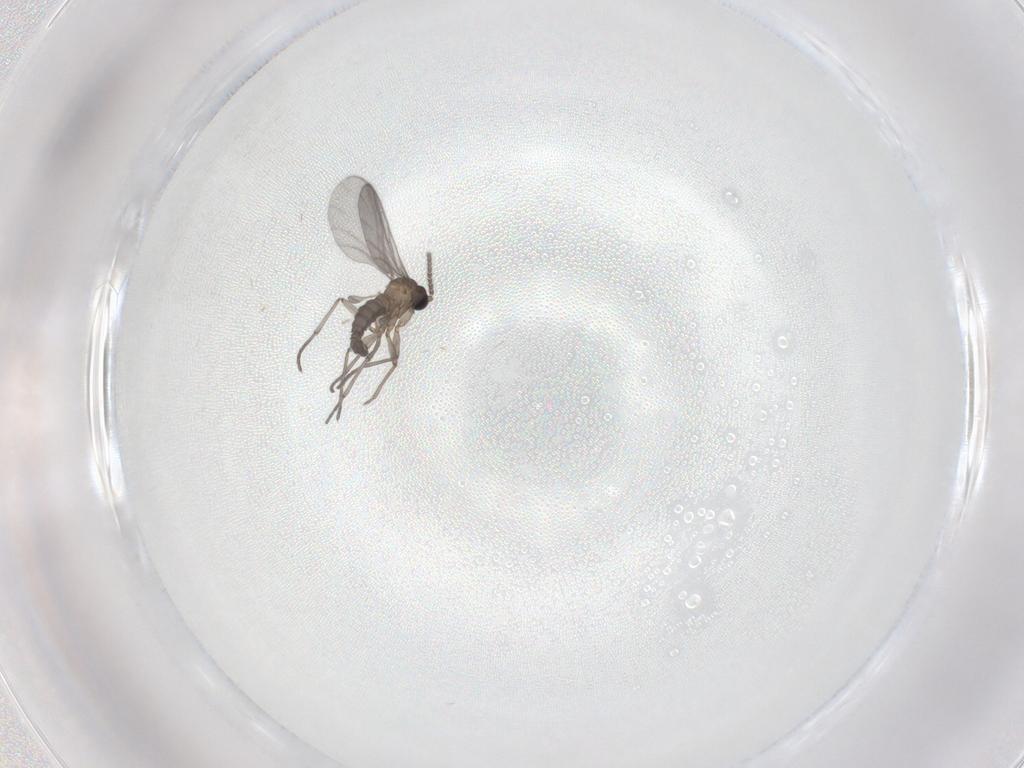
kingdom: Animalia
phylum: Arthropoda
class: Insecta
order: Diptera
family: Sciaridae
